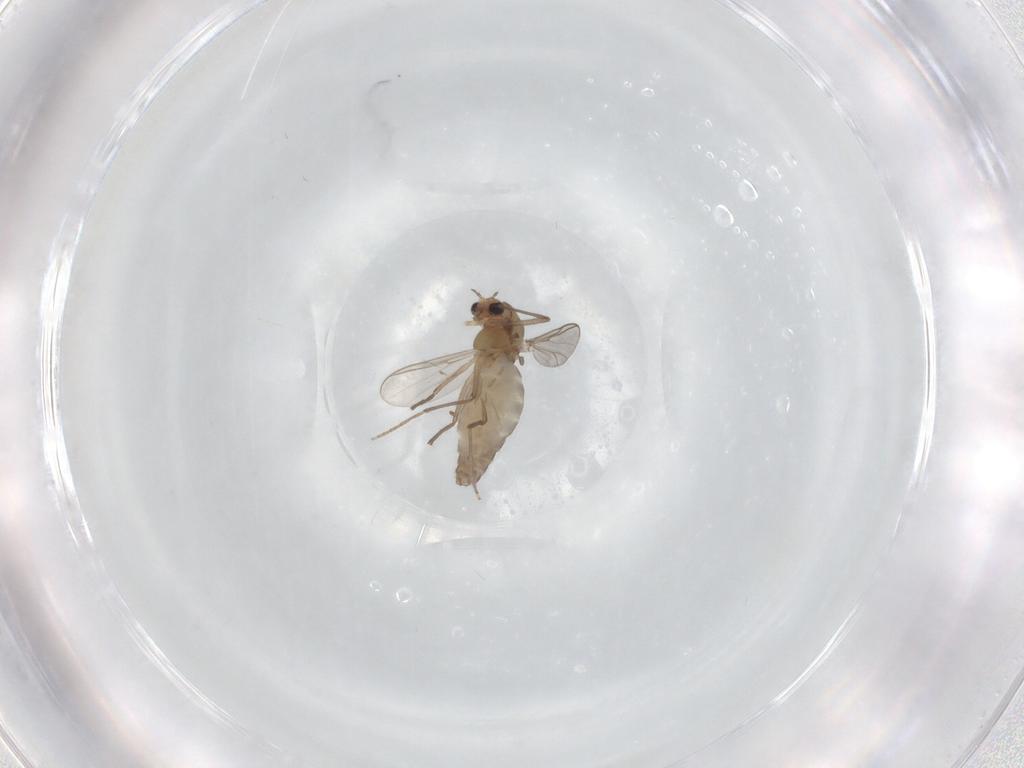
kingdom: Animalia
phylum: Arthropoda
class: Insecta
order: Diptera
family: Chironomidae
